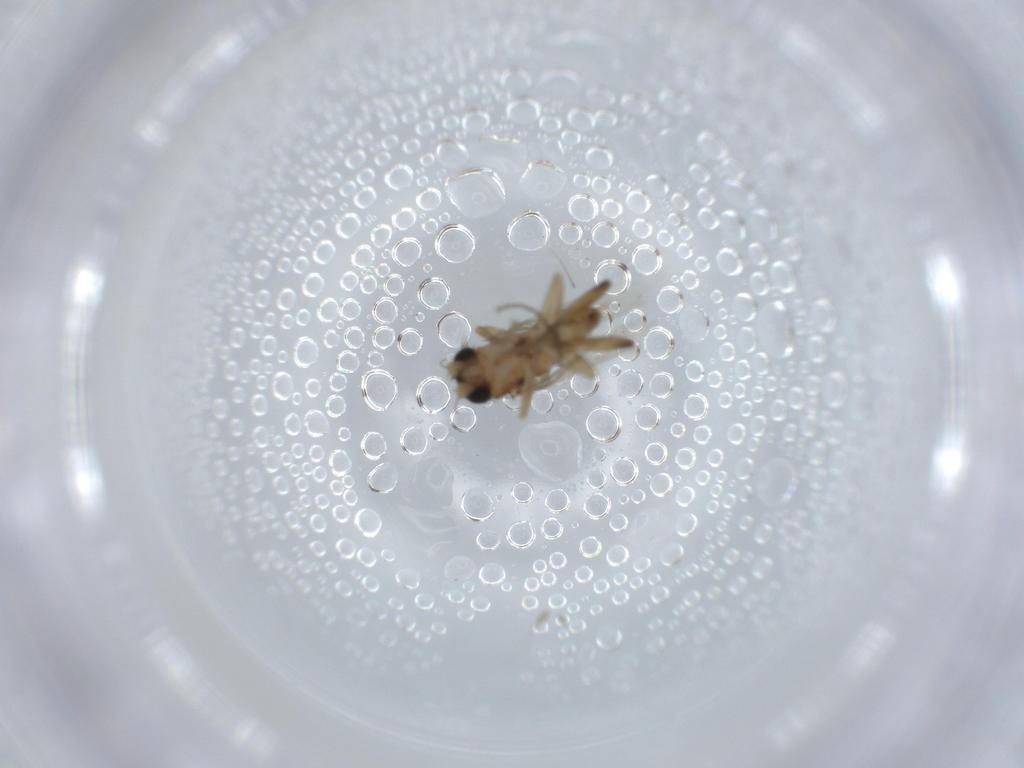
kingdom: Animalia
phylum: Arthropoda
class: Insecta
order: Diptera
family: Phoridae
